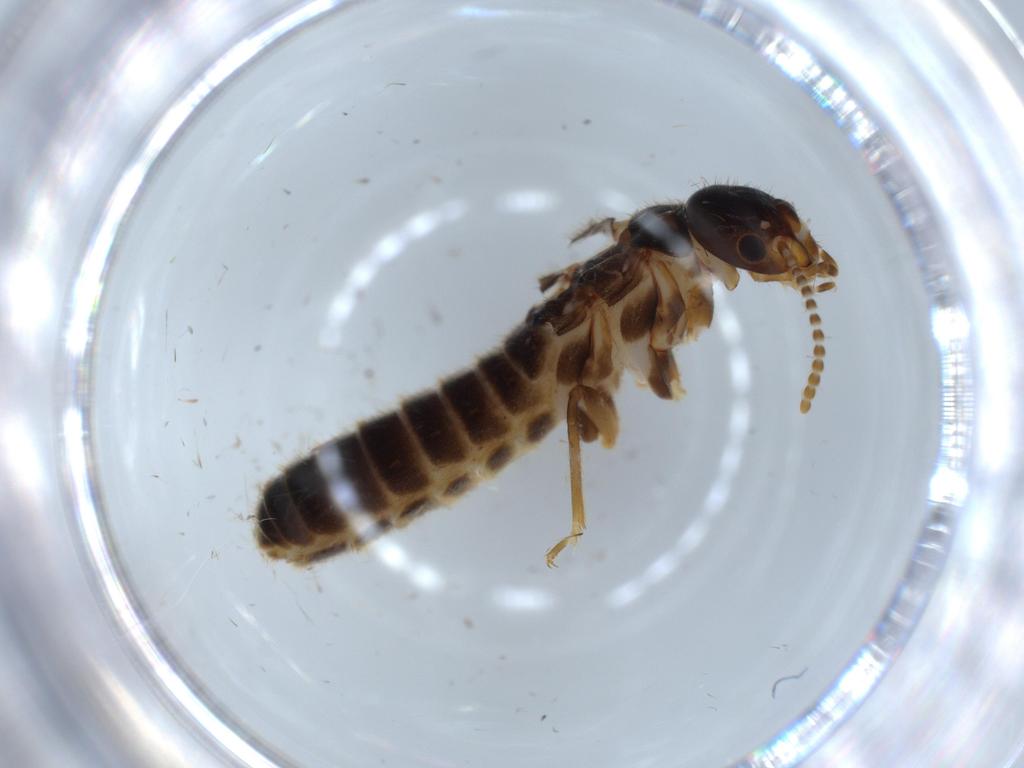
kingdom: Animalia
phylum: Arthropoda
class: Insecta
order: Blattodea
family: Termitidae
